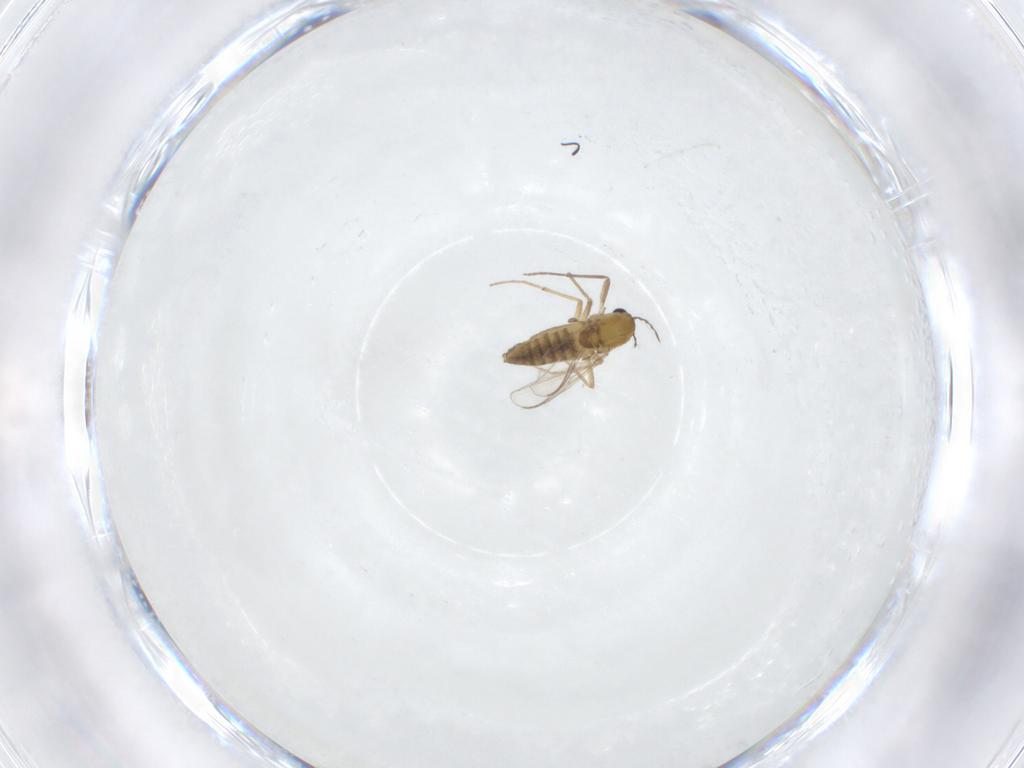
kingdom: Animalia
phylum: Arthropoda
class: Insecta
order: Diptera
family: Chironomidae
